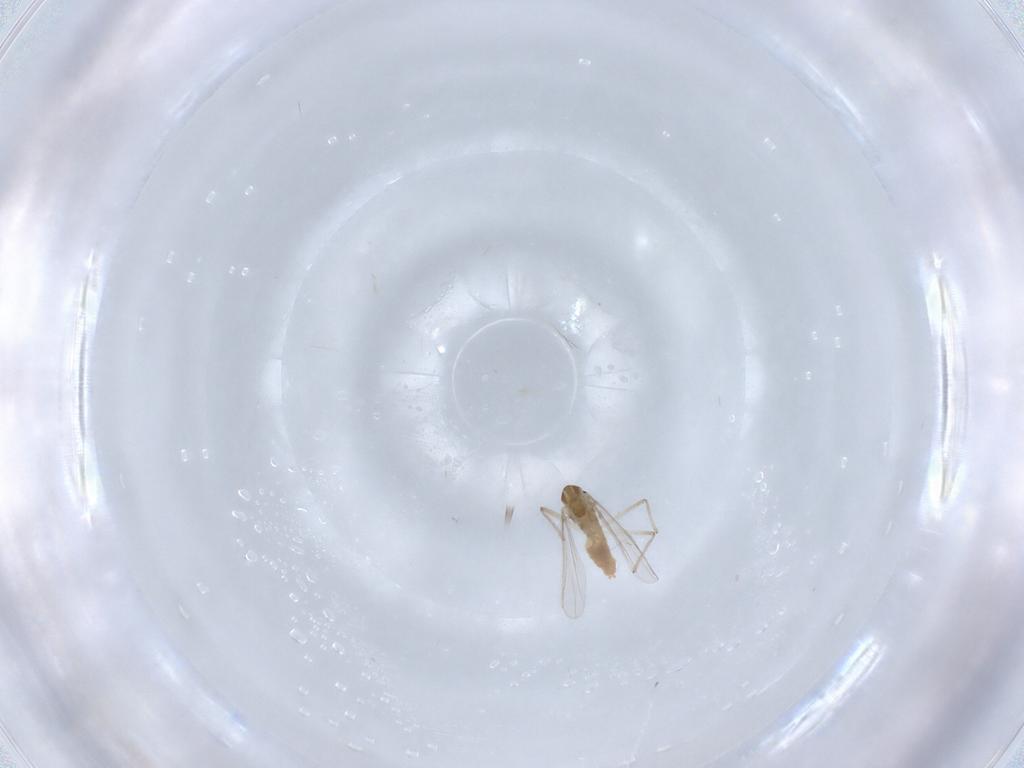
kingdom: Animalia
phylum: Arthropoda
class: Insecta
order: Diptera
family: Chironomidae
